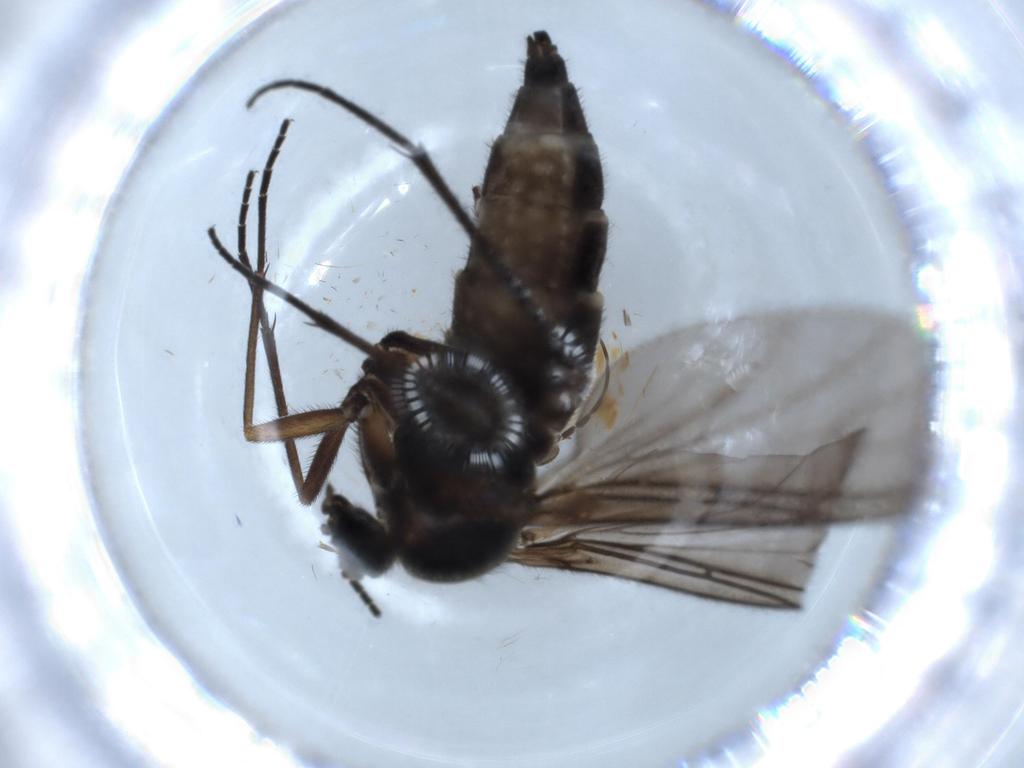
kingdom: Animalia
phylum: Arthropoda
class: Insecta
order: Diptera
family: Sciaridae
